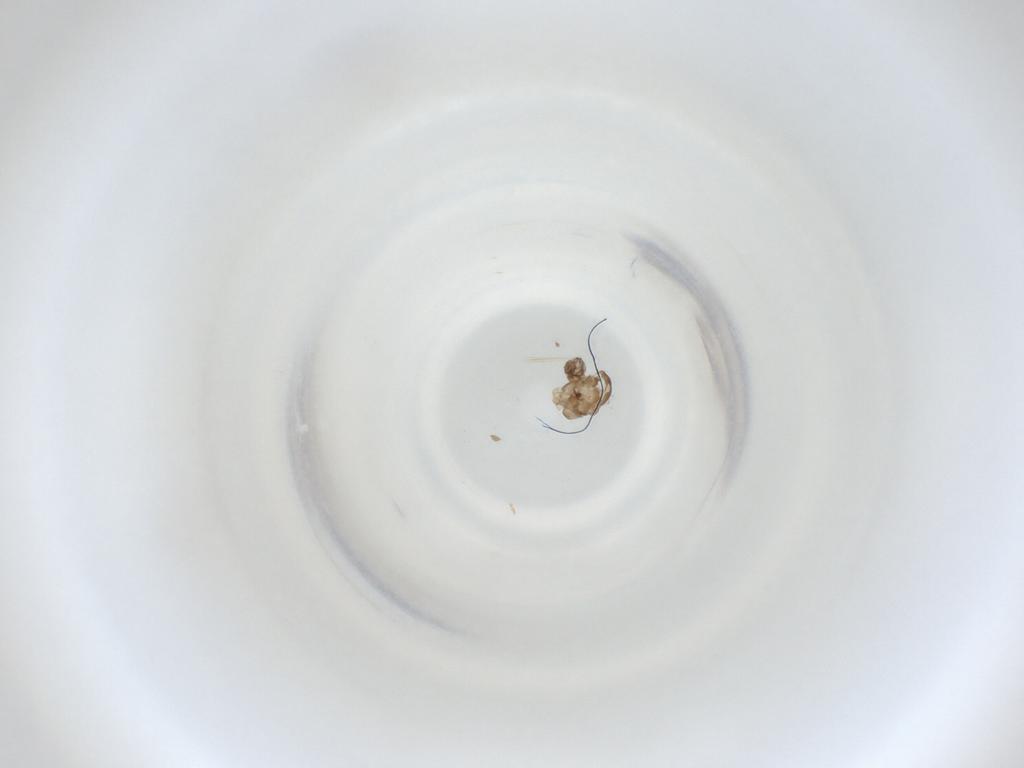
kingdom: Animalia
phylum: Arthropoda
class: Insecta
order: Diptera
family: Cecidomyiidae
